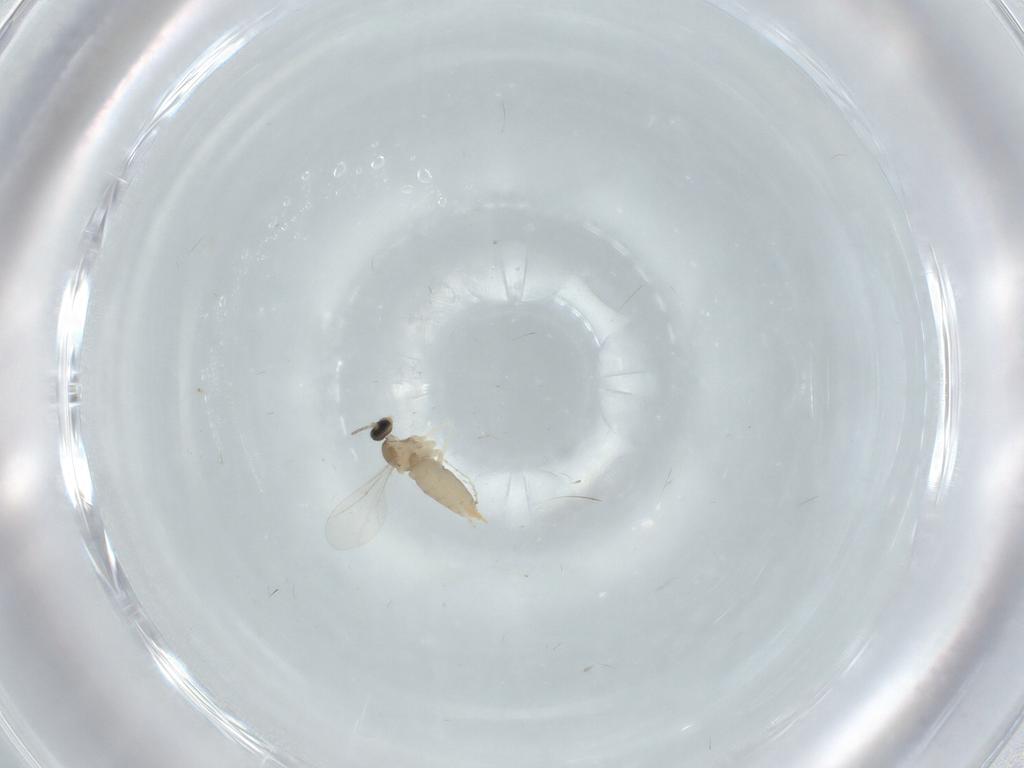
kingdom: Animalia
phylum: Arthropoda
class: Insecta
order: Diptera
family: Cecidomyiidae
